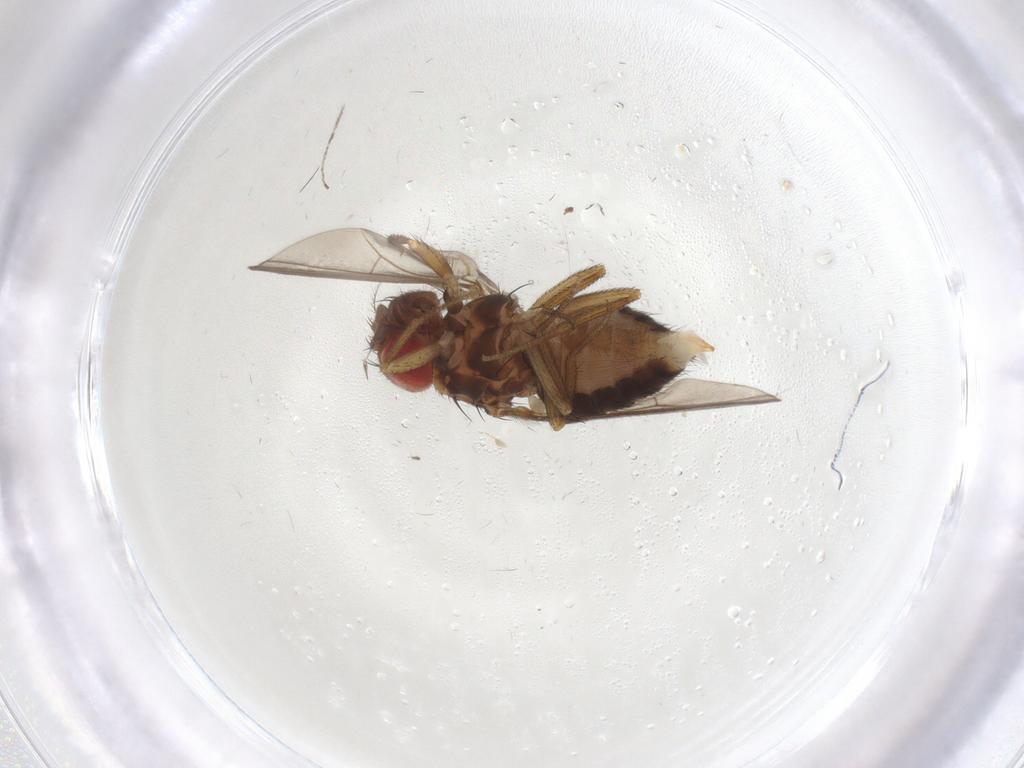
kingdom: Animalia
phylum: Arthropoda
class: Insecta
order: Diptera
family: Drosophilidae
